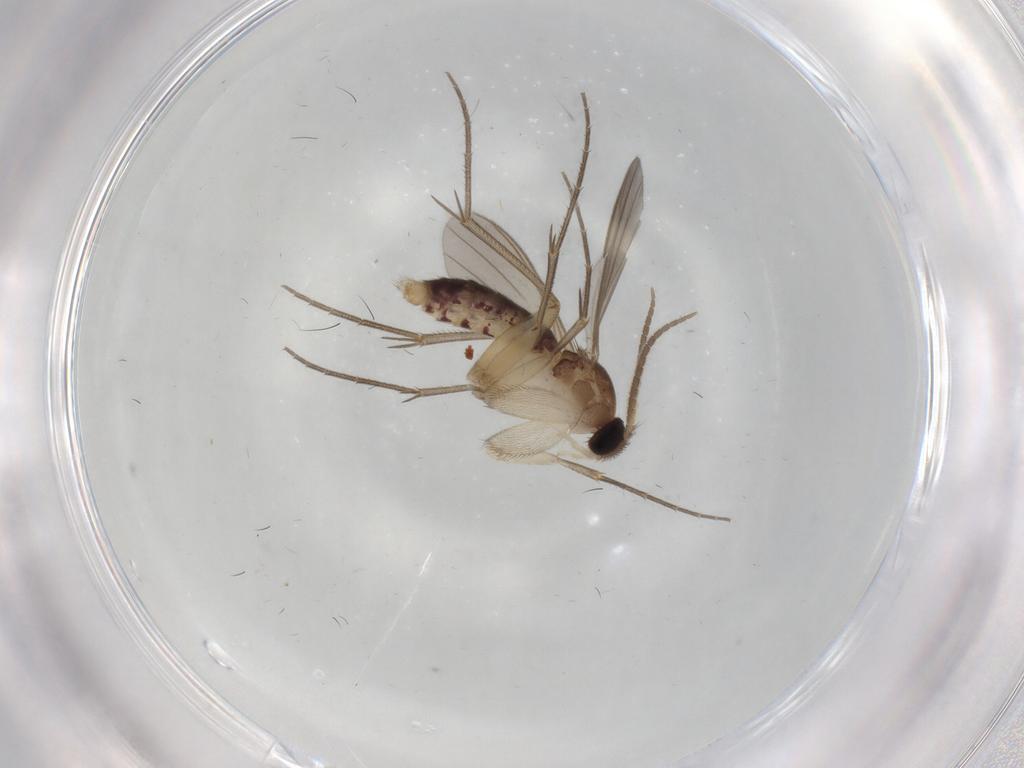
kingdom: Animalia
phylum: Arthropoda
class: Insecta
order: Diptera
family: Mycetophilidae
